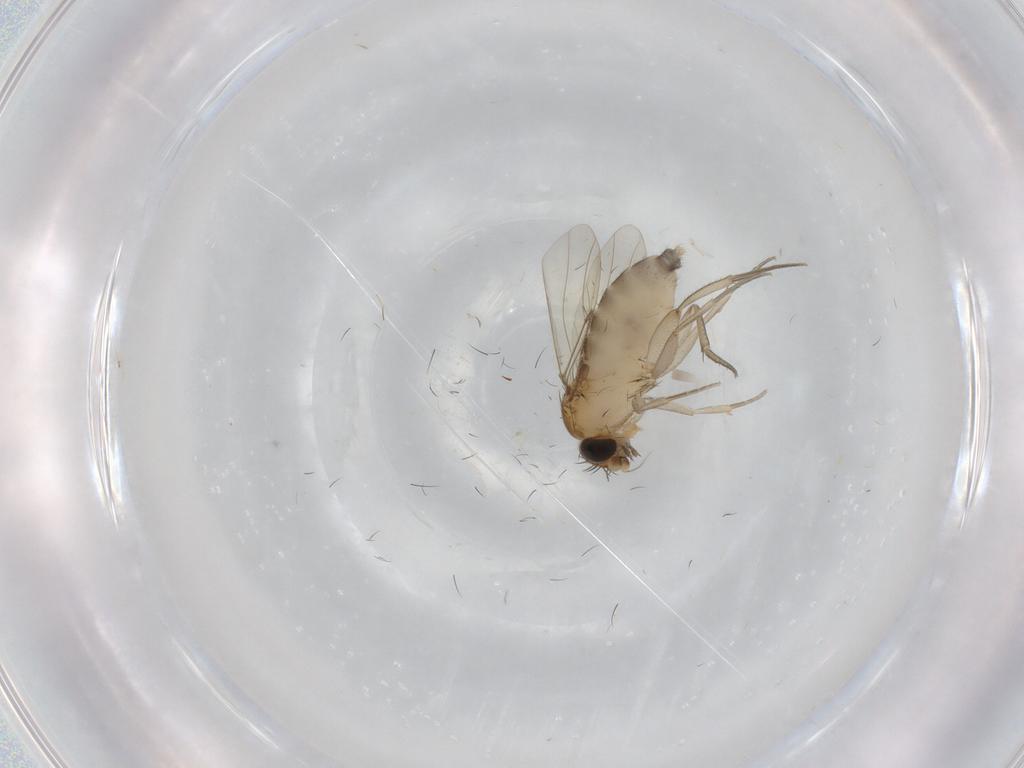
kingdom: Animalia
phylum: Arthropoda
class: Insecta
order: Diptera
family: Phoridae
